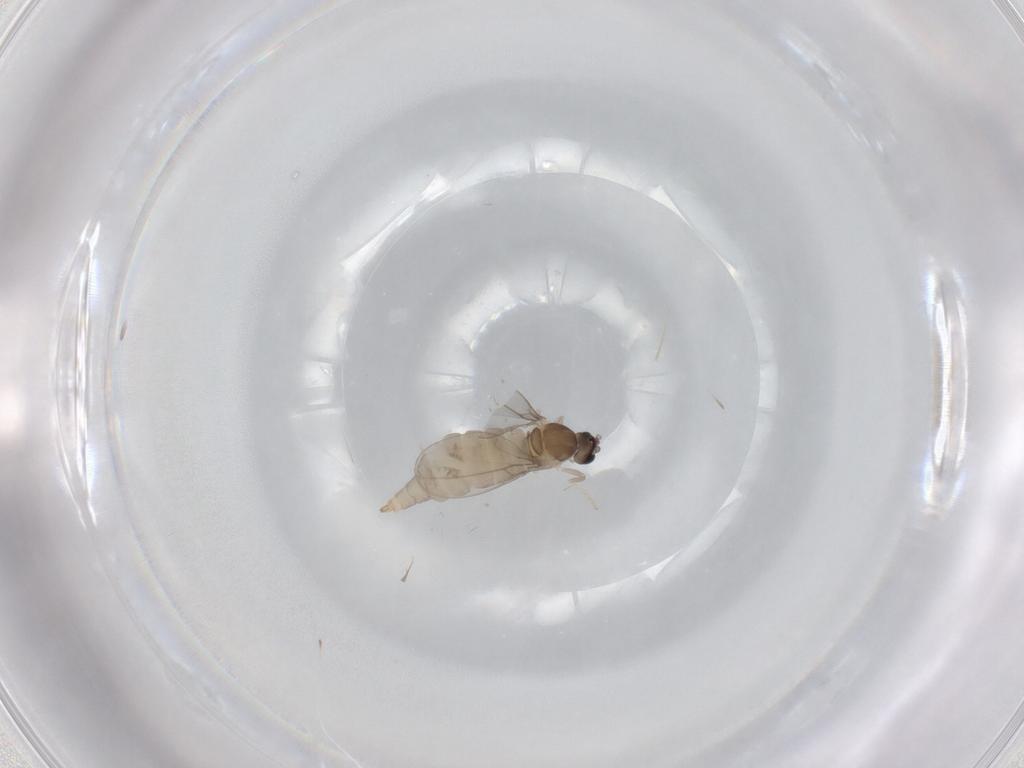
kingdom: Animalia
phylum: Arthropoda
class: Insecta
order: Diptera
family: Cecidomyiidae
